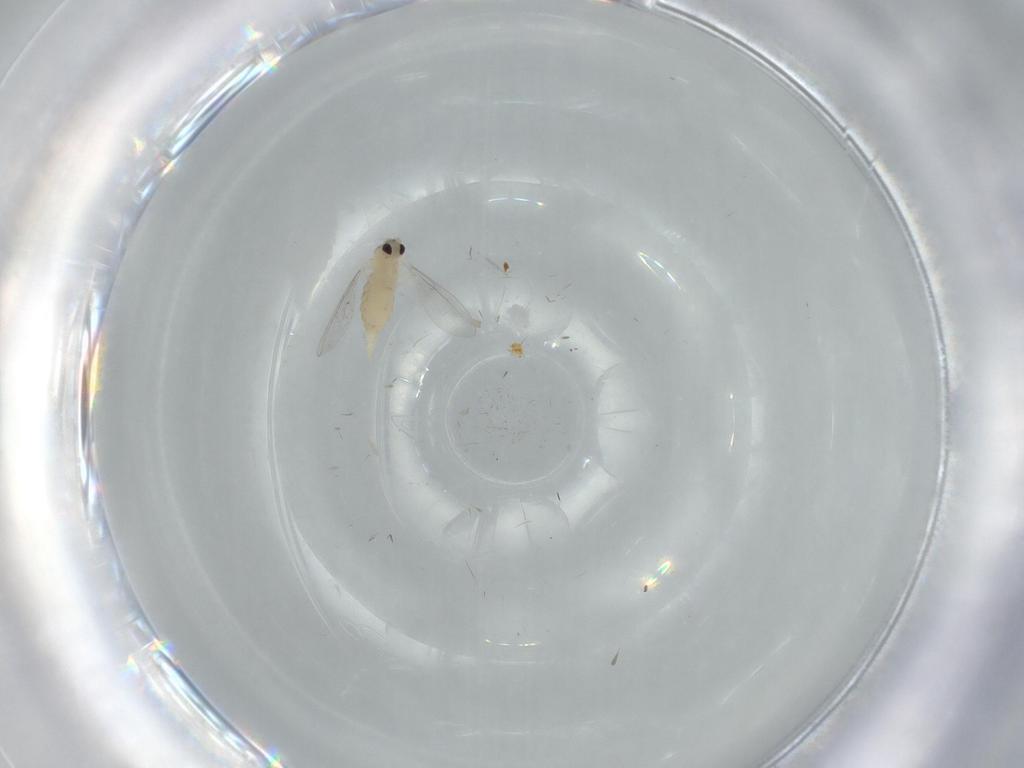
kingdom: Animalia
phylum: Arthropoda
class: Insecta
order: Diptera
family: Cecidomyiidae
